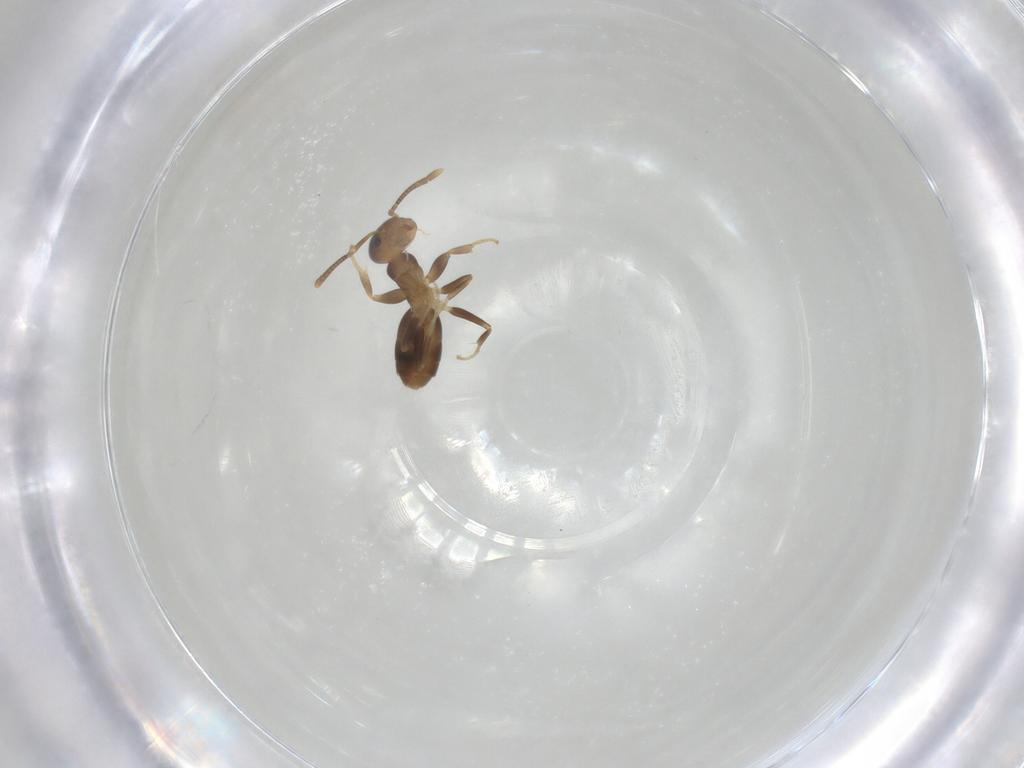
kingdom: Animalia
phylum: Arthropoda
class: Insecta
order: Hymenoptera
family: Formicidae
